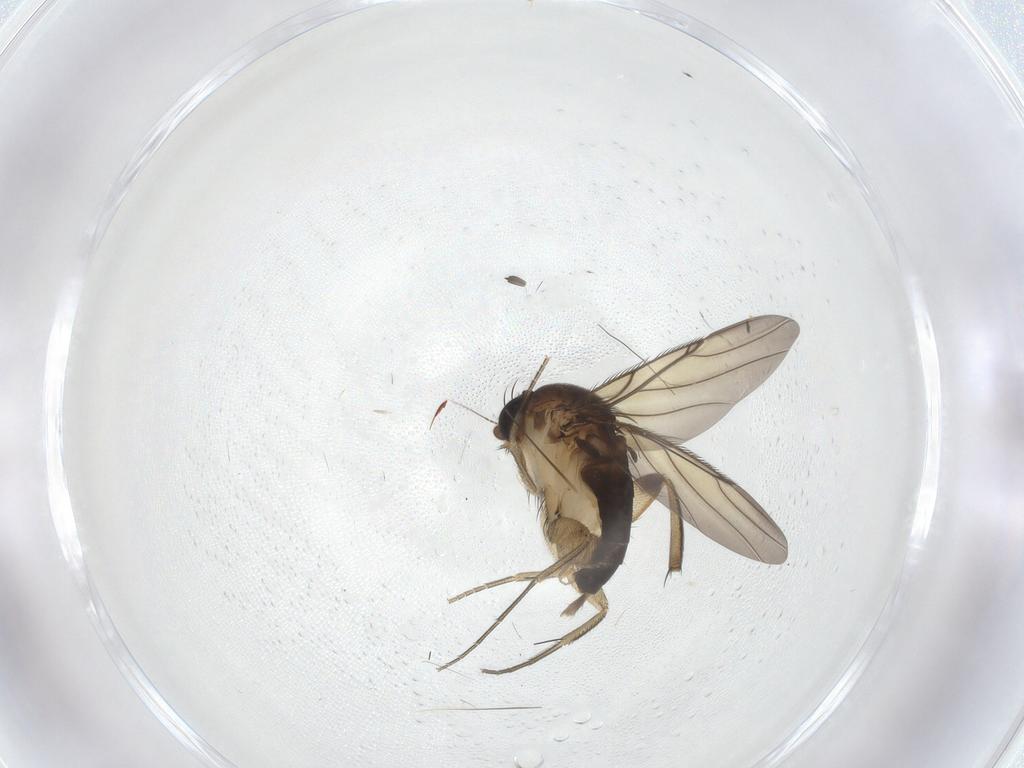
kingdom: Animalia
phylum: Arthropoda
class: Insecta
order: Diptera
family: Chironomidae
